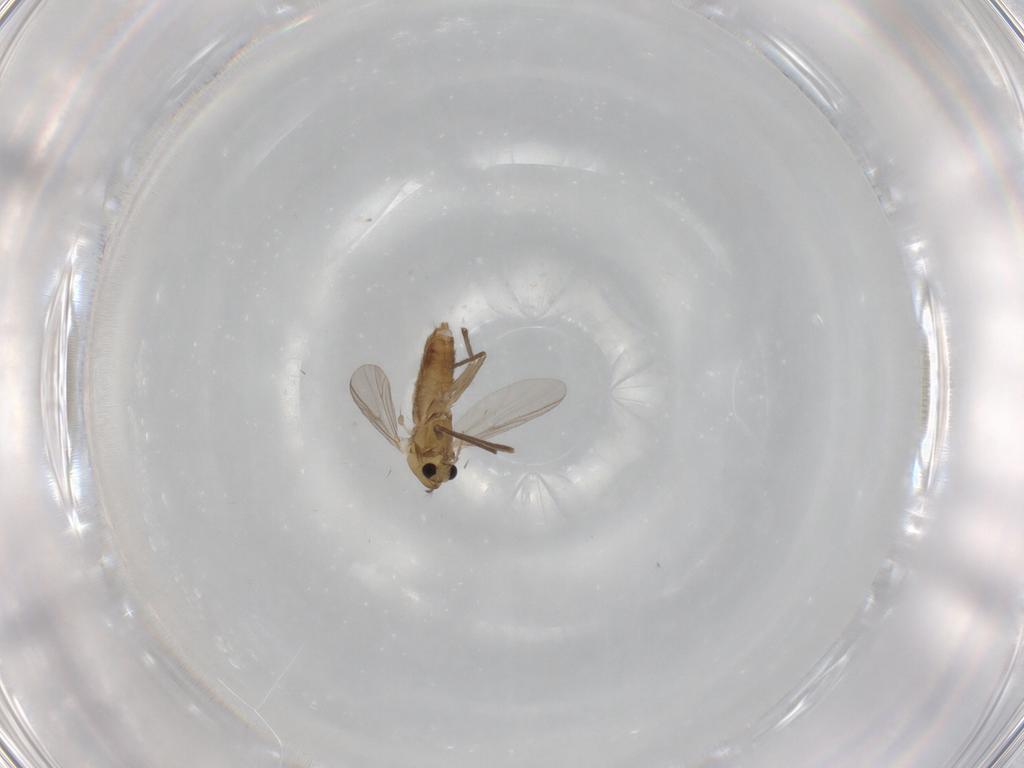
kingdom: Animalia
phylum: Arthropoda
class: Insecta
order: Diptera
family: Chironomidae
